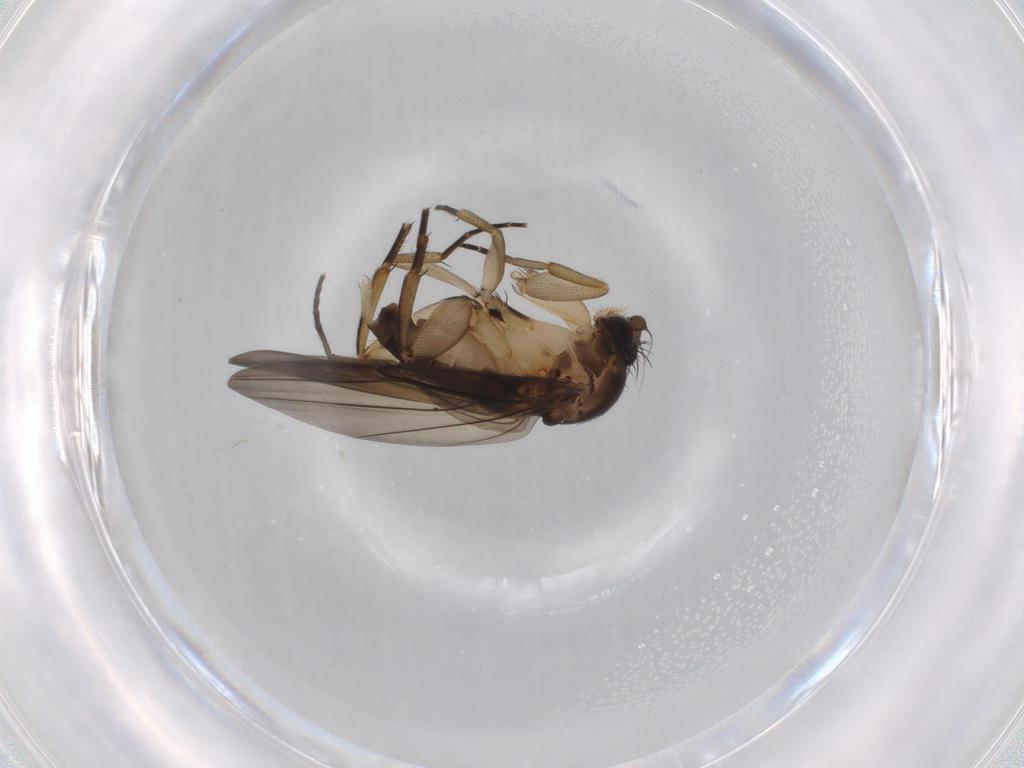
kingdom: Animalia
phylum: Arthropoda
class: Insecta
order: Diptera
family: Phoridae
